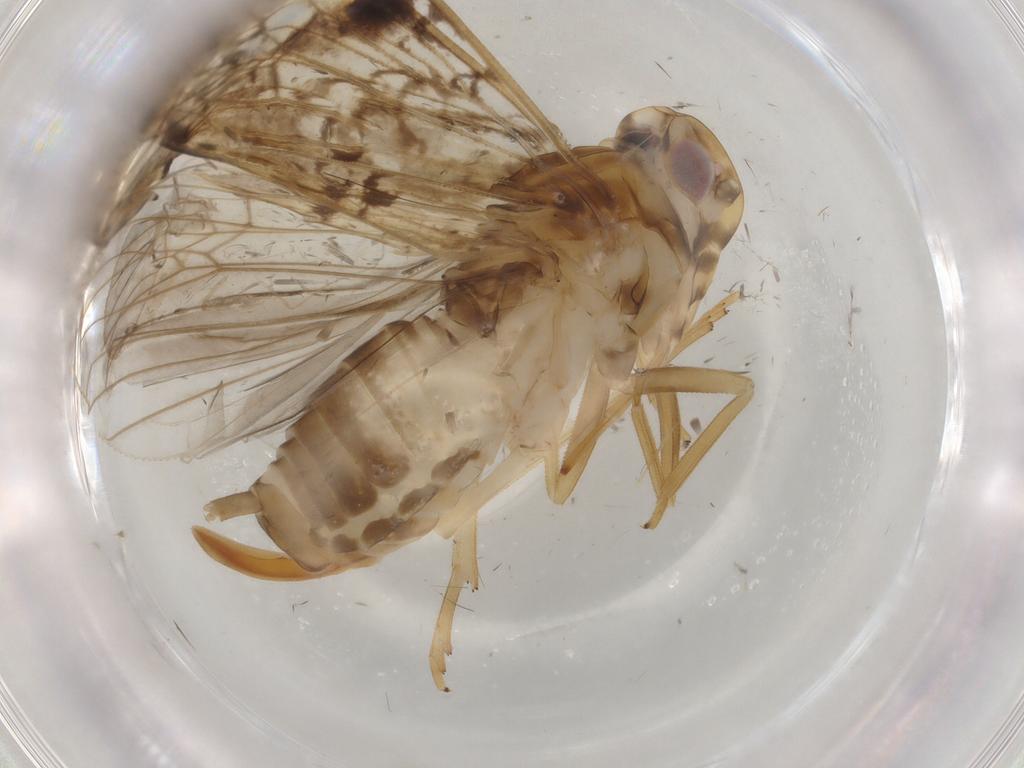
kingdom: Animalia
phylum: Arthropoda
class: Insecta
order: Hemiptera
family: Cixiidae
